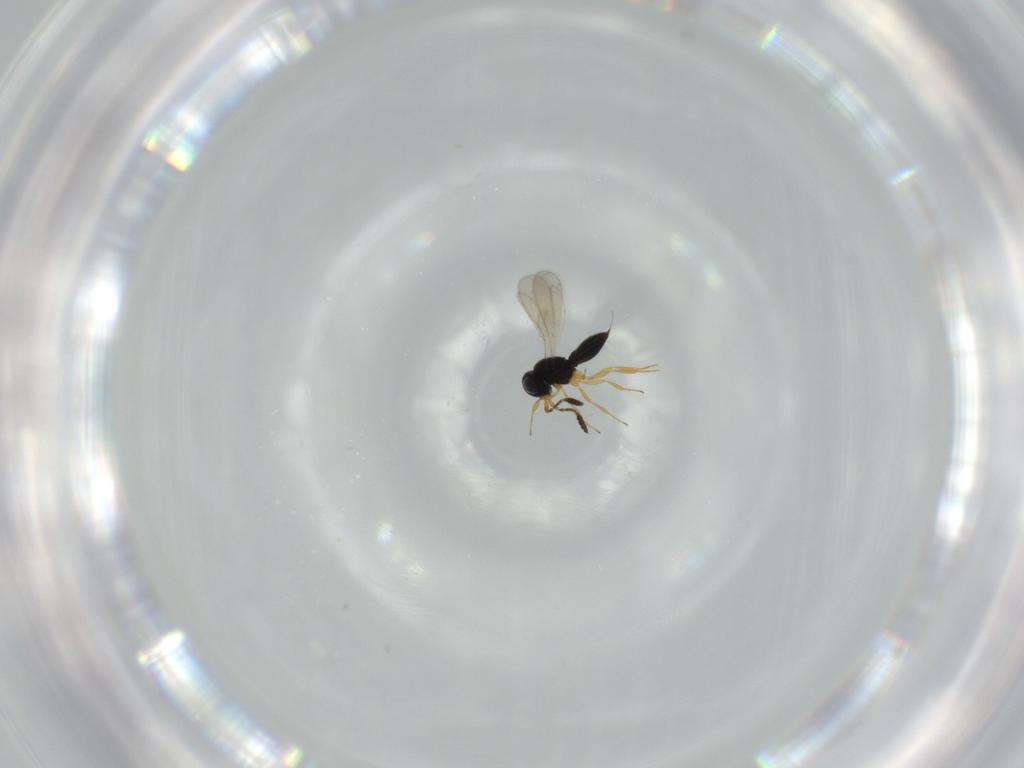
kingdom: Animalia
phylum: Arthropoda
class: Insecta
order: Hymenoptera
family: Scelionidae
